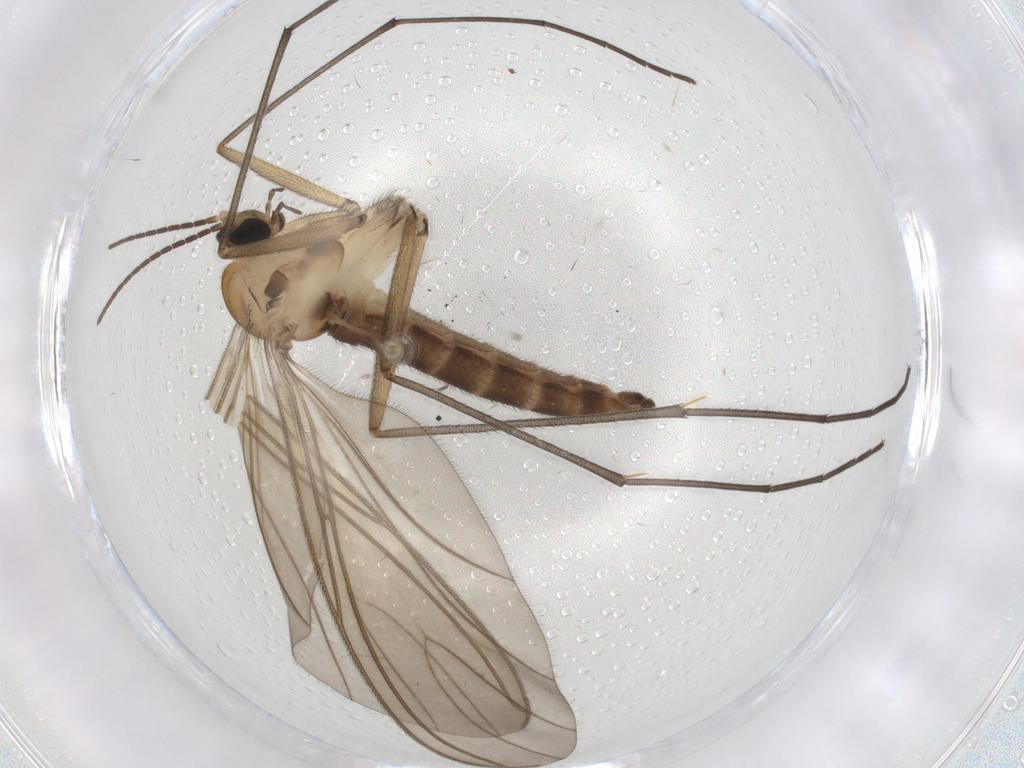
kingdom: Animalia
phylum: Arthropoda
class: Insecta
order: Diptera
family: Sciaridae
